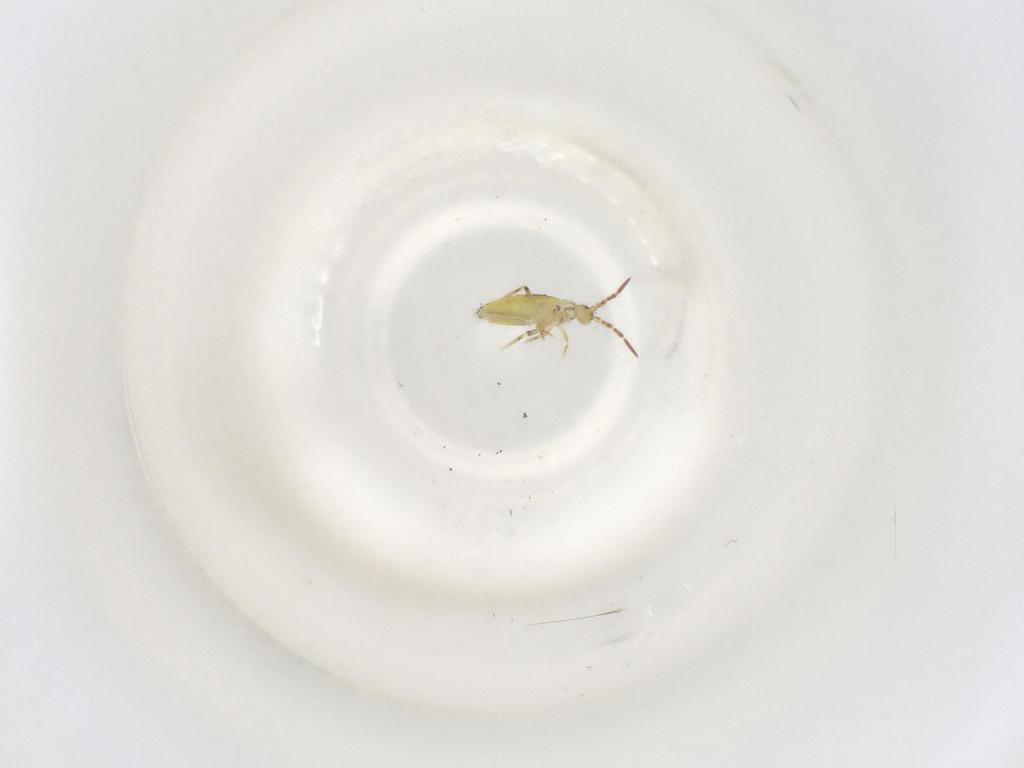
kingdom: Animalia
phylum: Arthropoda
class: Collembola
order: Entomobryomorpha
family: Entomobryidae
